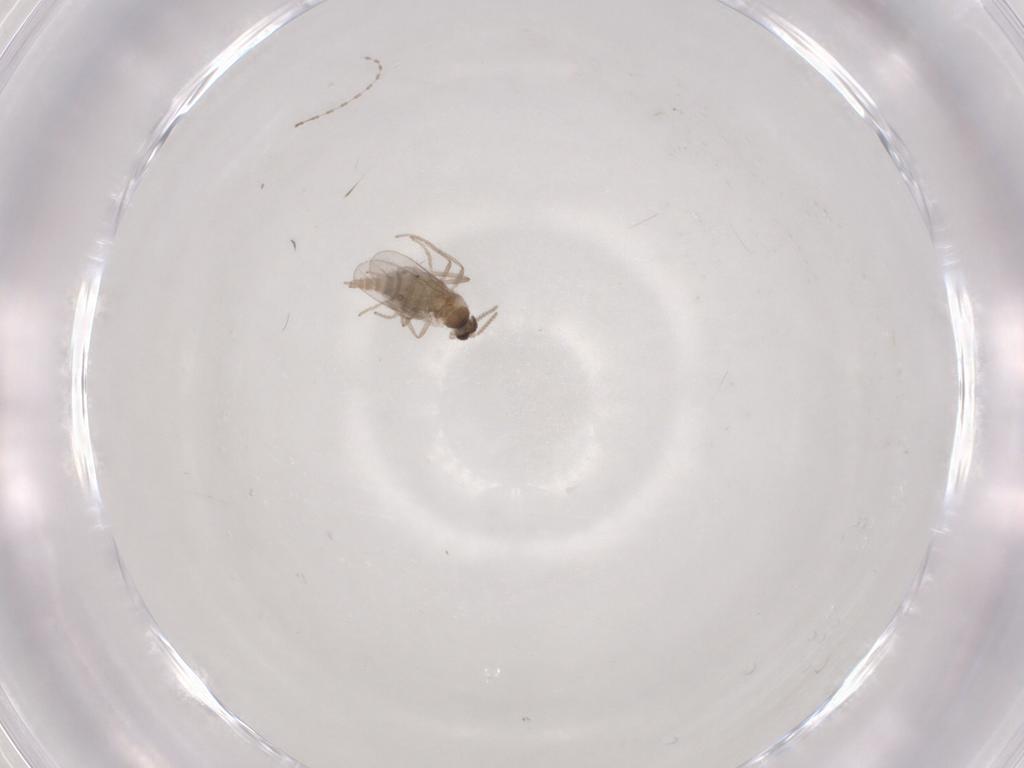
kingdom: Animalia
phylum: Arthropoda
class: Insecta
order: Diptera
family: Cecidomyiidae
